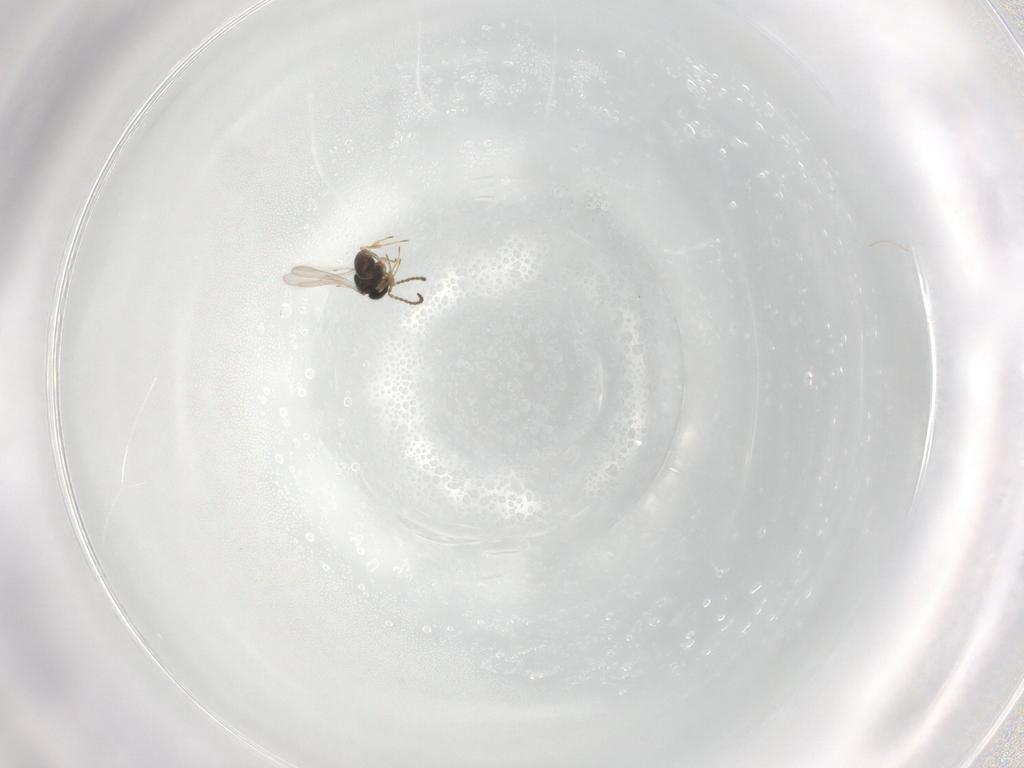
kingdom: Animalia
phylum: Arthropoda
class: Insecta
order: Hymenoptera
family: Scelionidae
